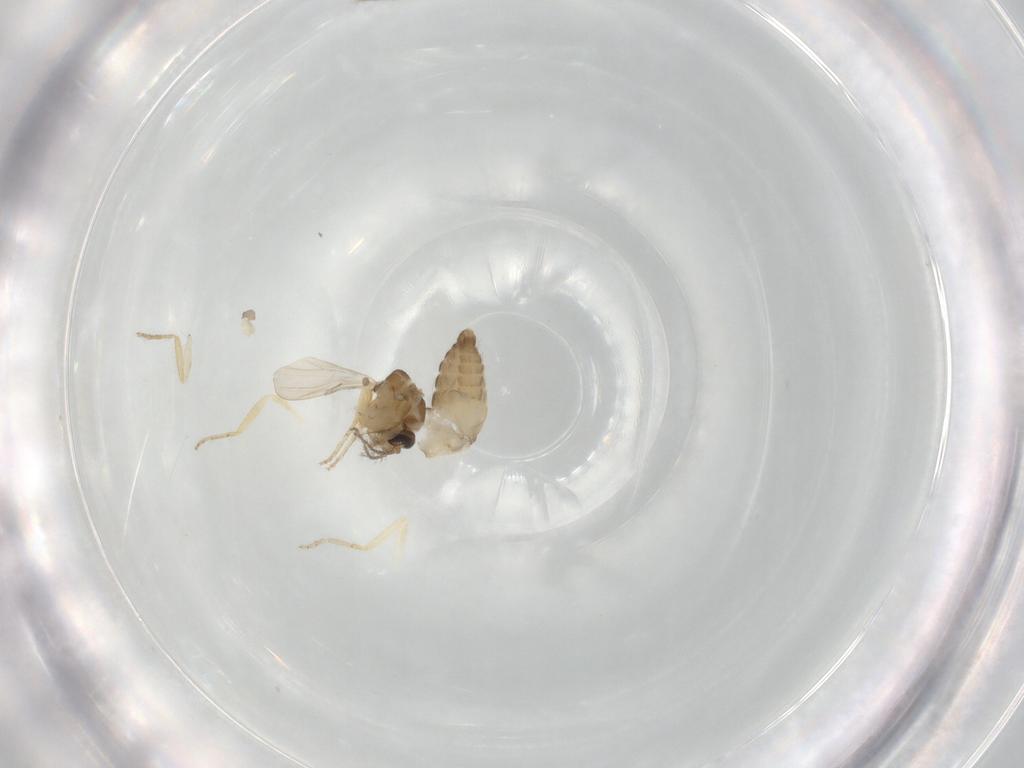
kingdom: Animalia
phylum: Arthropoda
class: Insecta
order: Diptera
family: Ceratopogonidae
